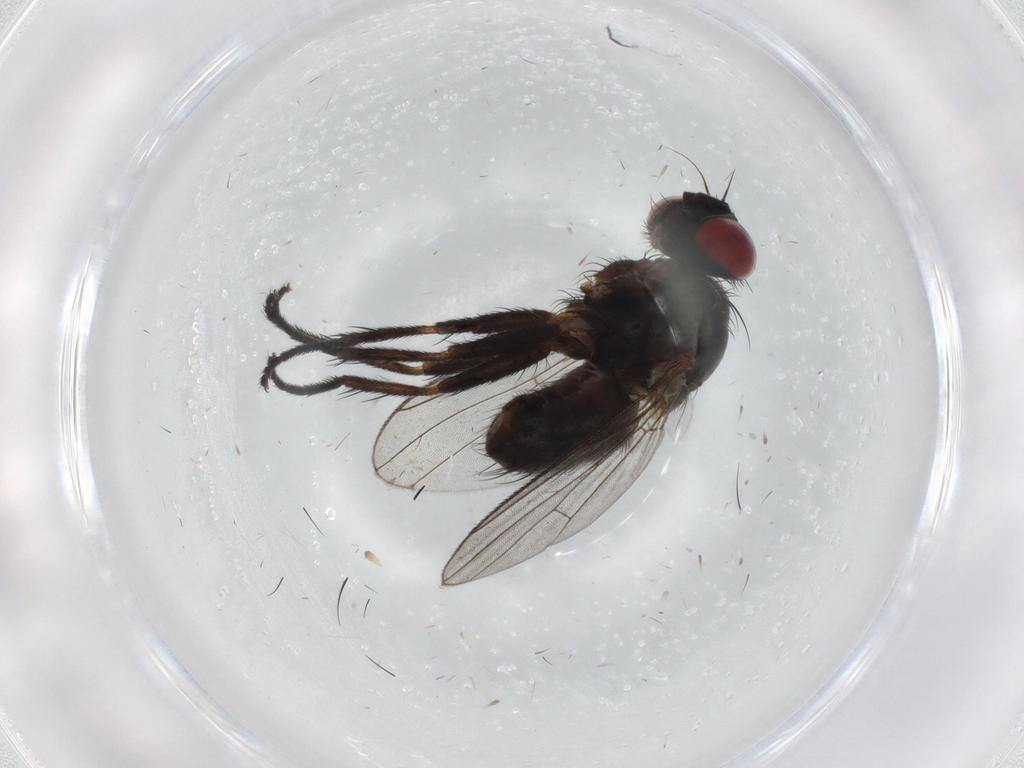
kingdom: Animalia
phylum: Arthropoda
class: Insecta
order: Diptera
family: Muscidae
